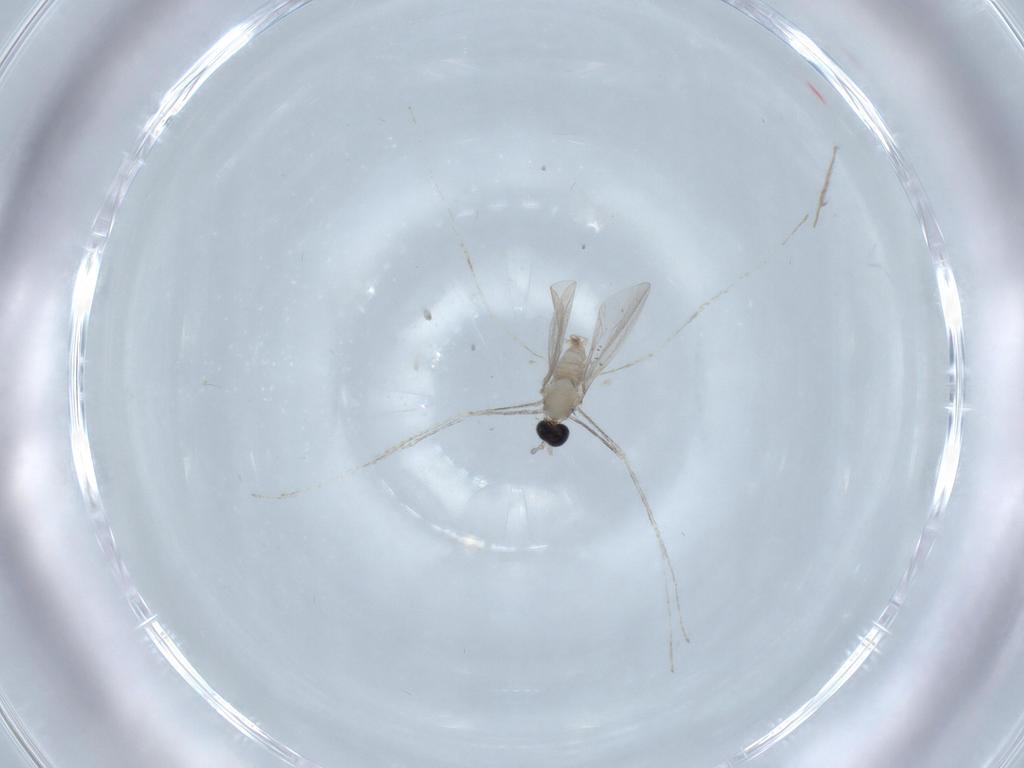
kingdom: Animalia
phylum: Arthropoda
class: Insecta
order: Diptera
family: Cecidomyiidae
